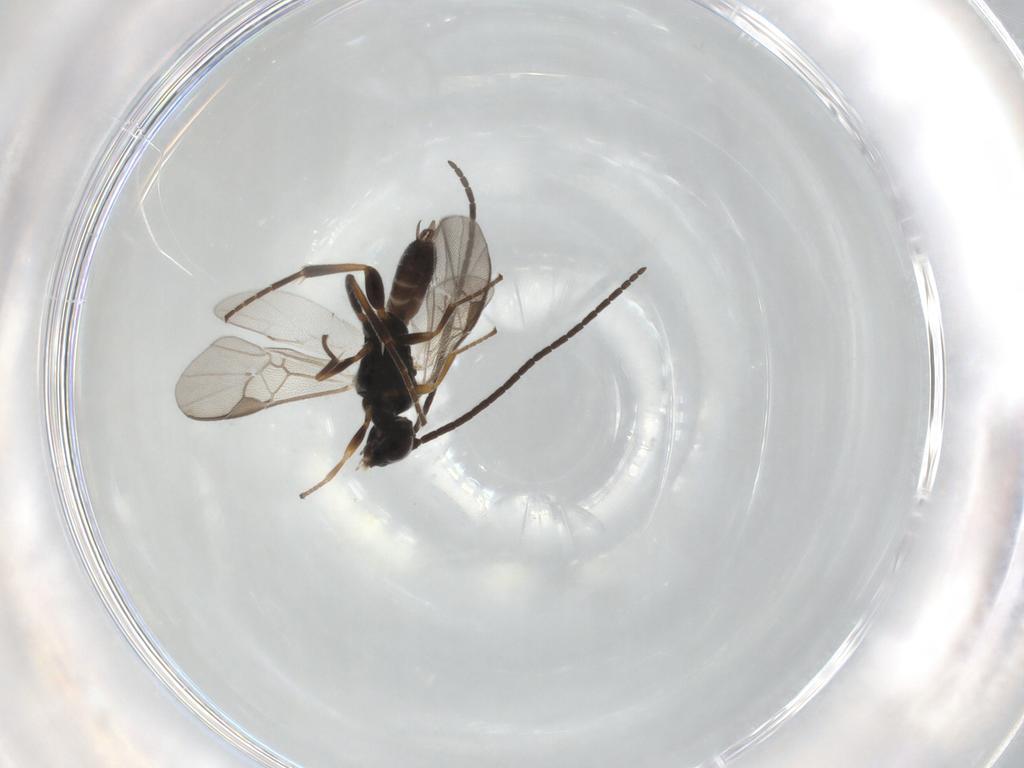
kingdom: Animalia
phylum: Arthropoda
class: Insecta
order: Hymenoptera
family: Braconidae
